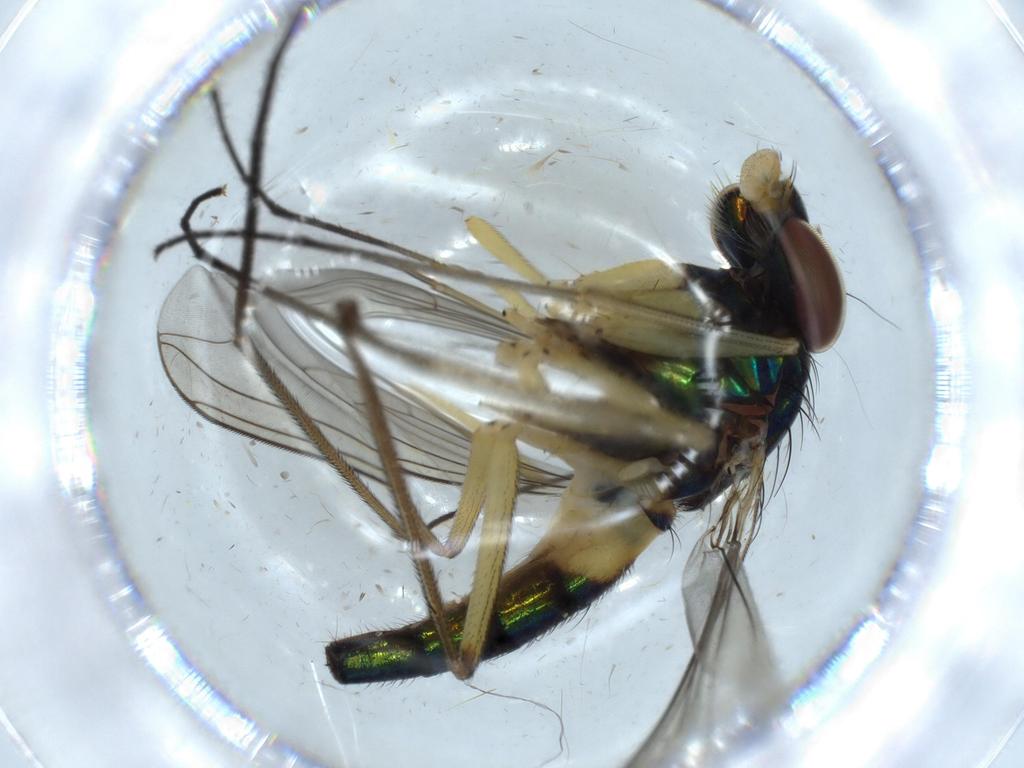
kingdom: Animalia
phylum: Arthropoda
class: Insecta
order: Diptera
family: Dolichopodidae
